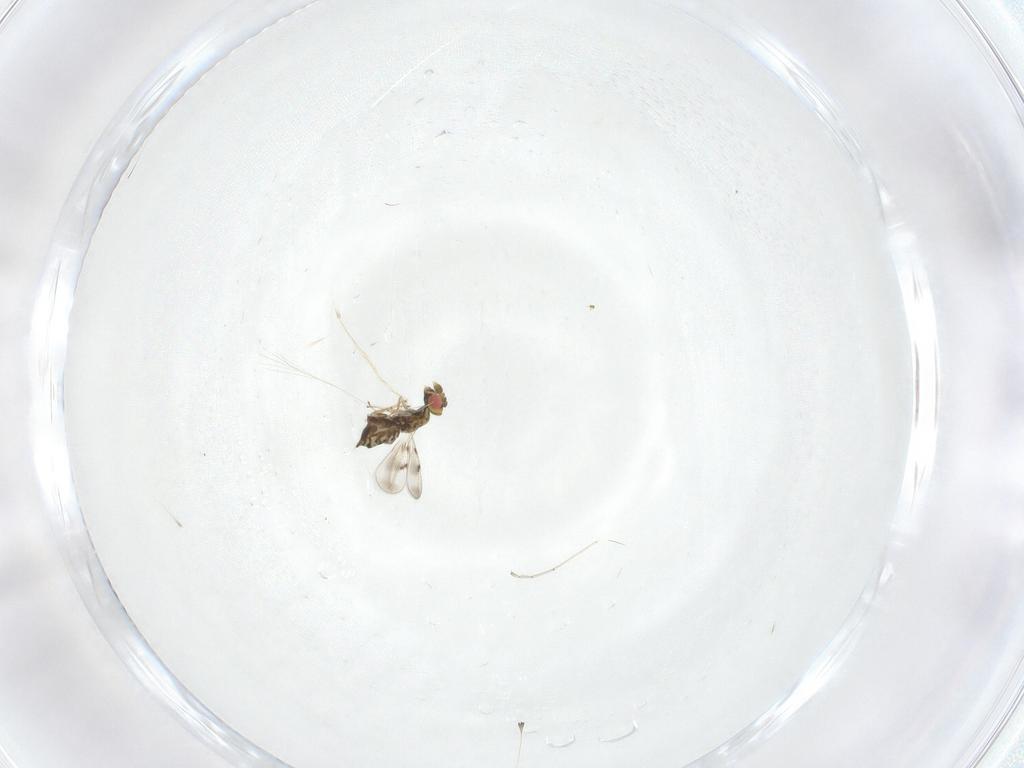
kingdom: Animalia
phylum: Arthropoda
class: Insecta
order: Hymenoptera
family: Eulophidae
